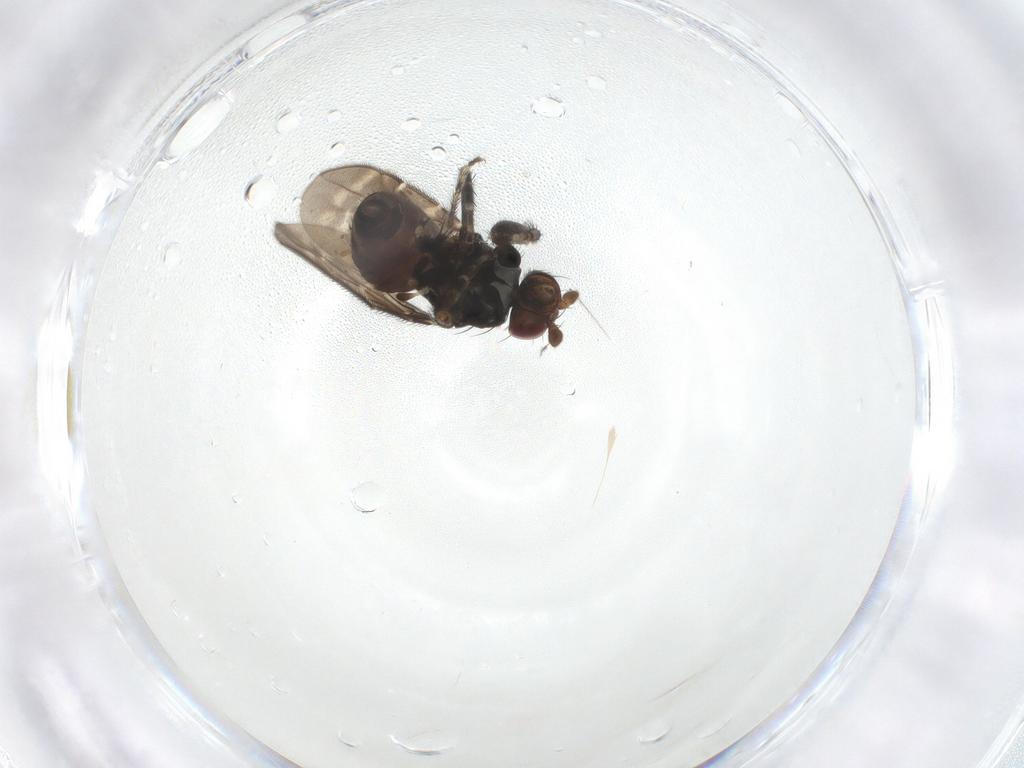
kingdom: Animalia
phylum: Arthropoda
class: Insecta
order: Diptera
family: Sphaeroceridae
